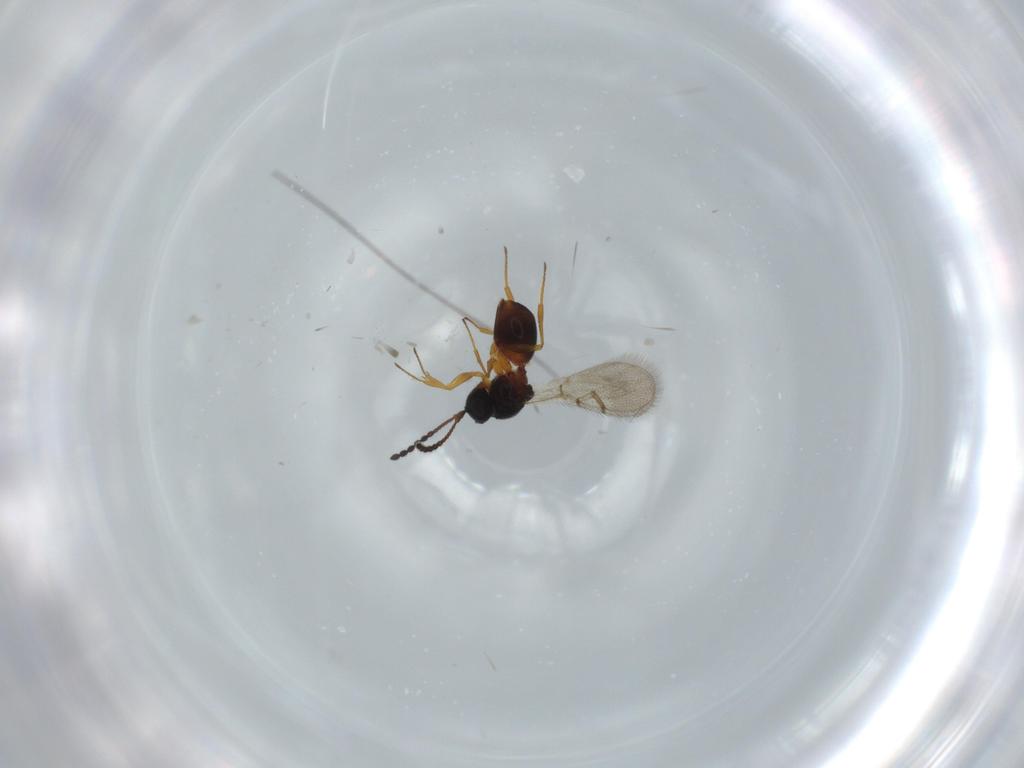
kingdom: Animalia
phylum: Arthropoda
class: Insecta
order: Hymenoptera
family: Figitidae
